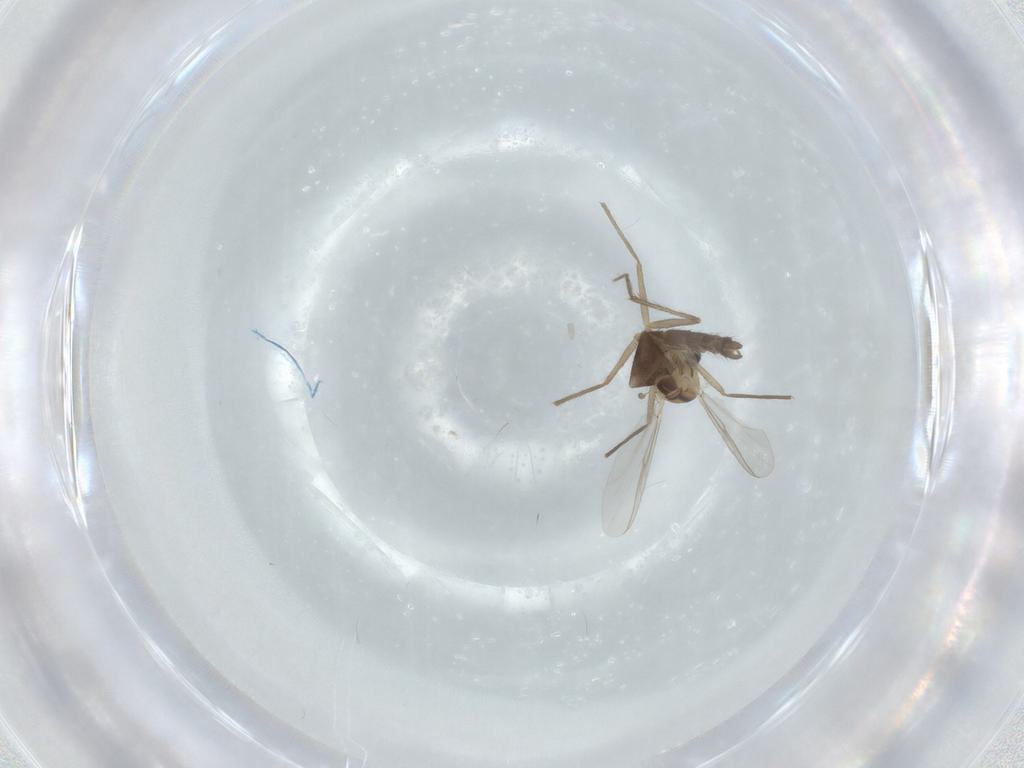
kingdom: Animalia
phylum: Arthropoda
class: Insecta
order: Diptera
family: Chironomidae
